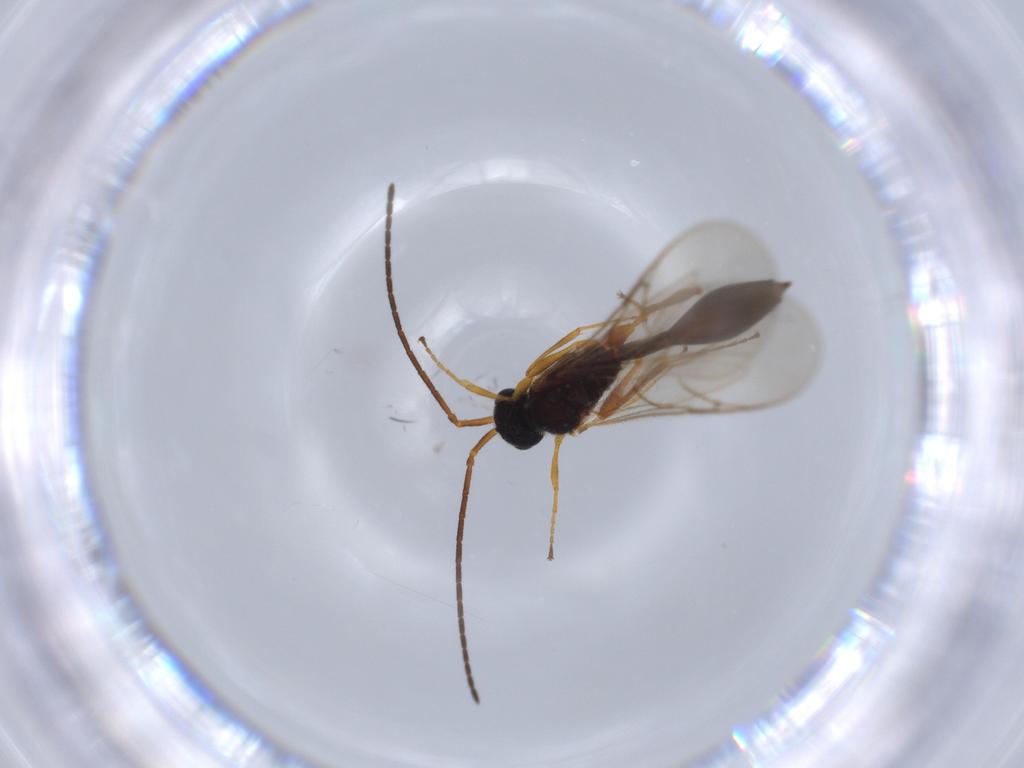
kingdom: Animalia
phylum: Arthropoda
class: Insecta
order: Hymenoptera
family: Diapriidae
